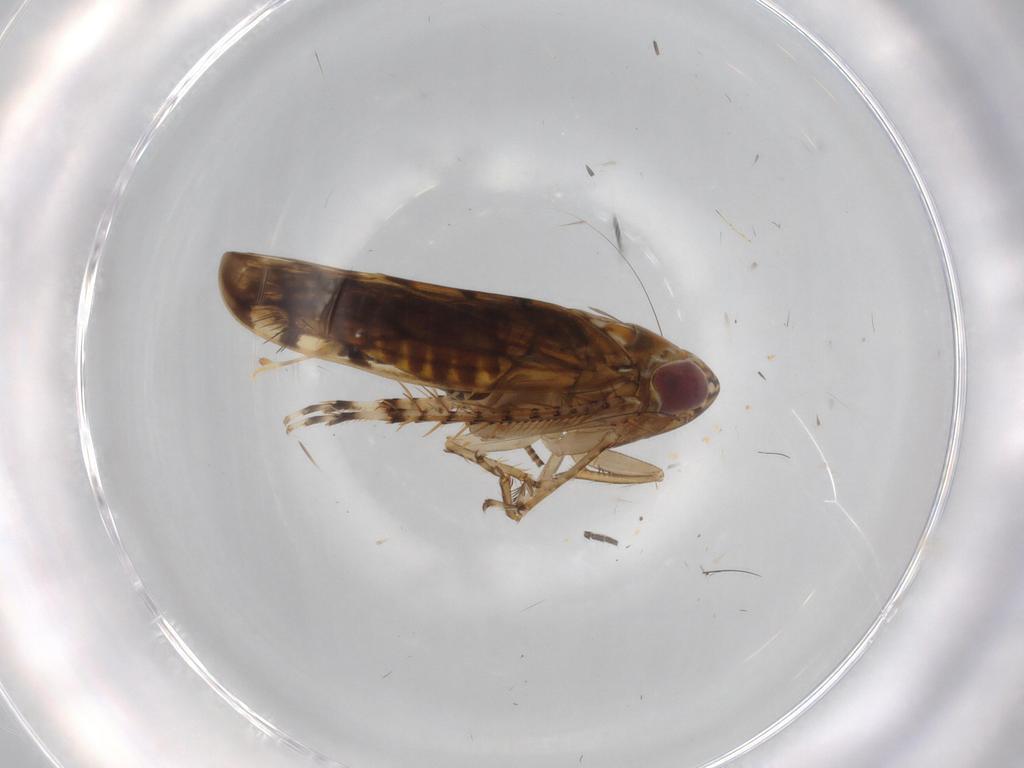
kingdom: Animalia
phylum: Arthropoda
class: Insecta
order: Hemiptera
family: Cicadellidae
